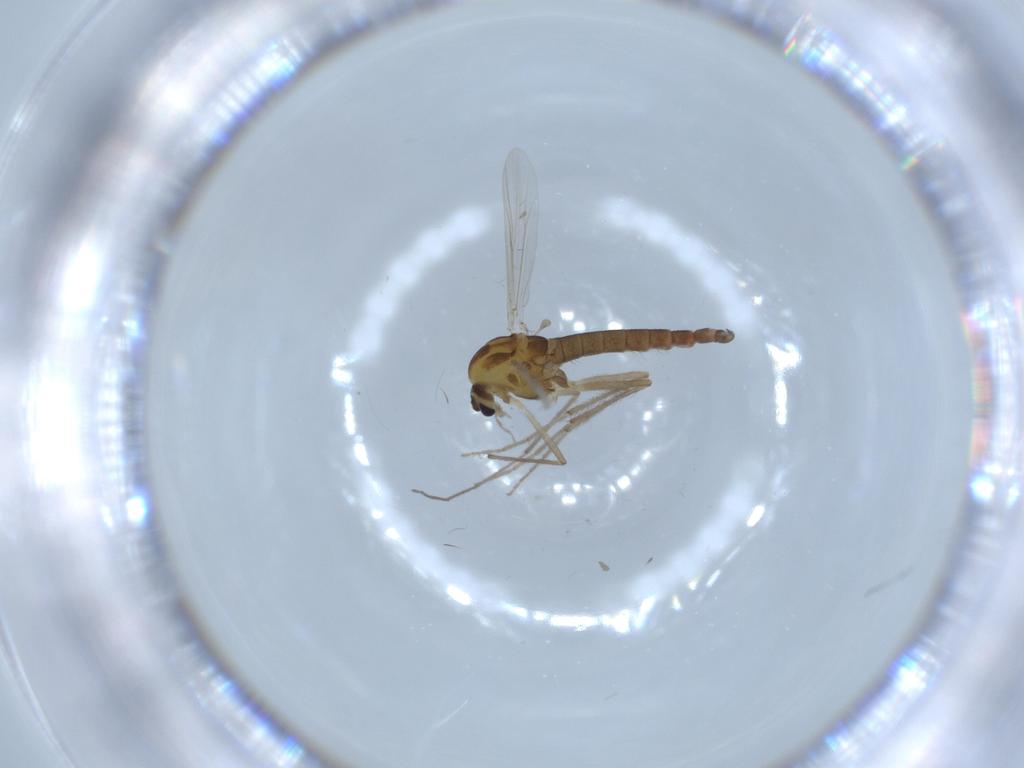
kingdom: Animalia
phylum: Arthropoda
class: Insecta
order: Diptera
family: Chironomidae
